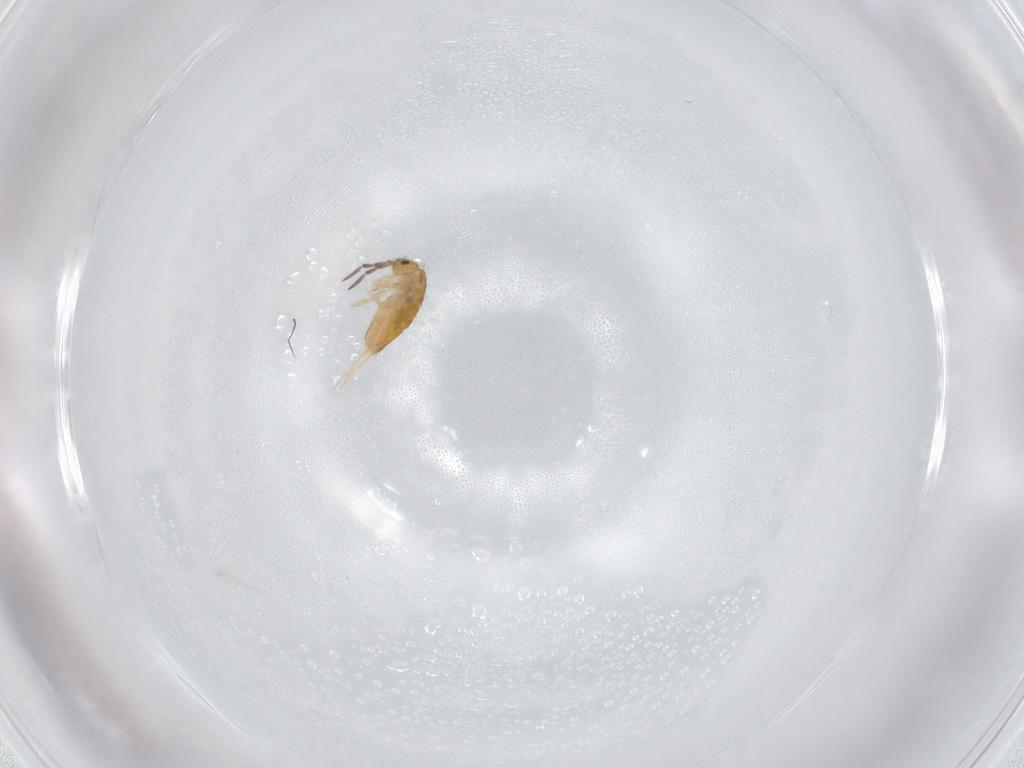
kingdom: Animalia
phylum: Arthropoda
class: Collembola
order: Entomobryomorpha
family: Entomobryidae
